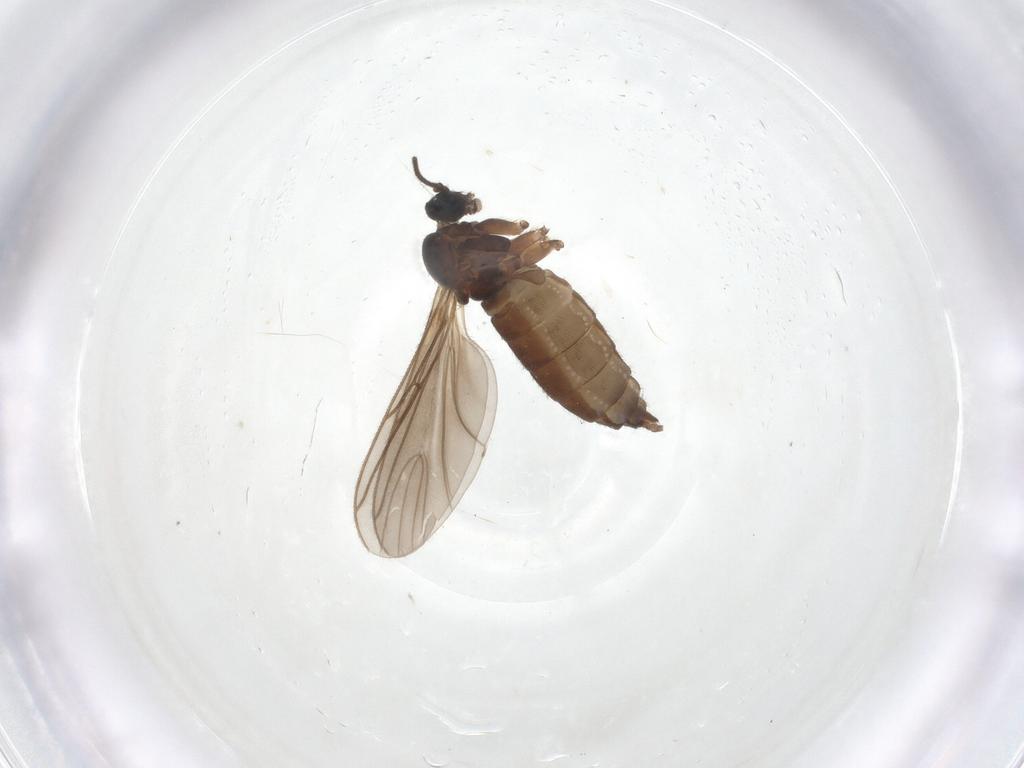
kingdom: Animalia
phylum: Arthropoda
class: Insecta
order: Diptera
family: Sciaridae
